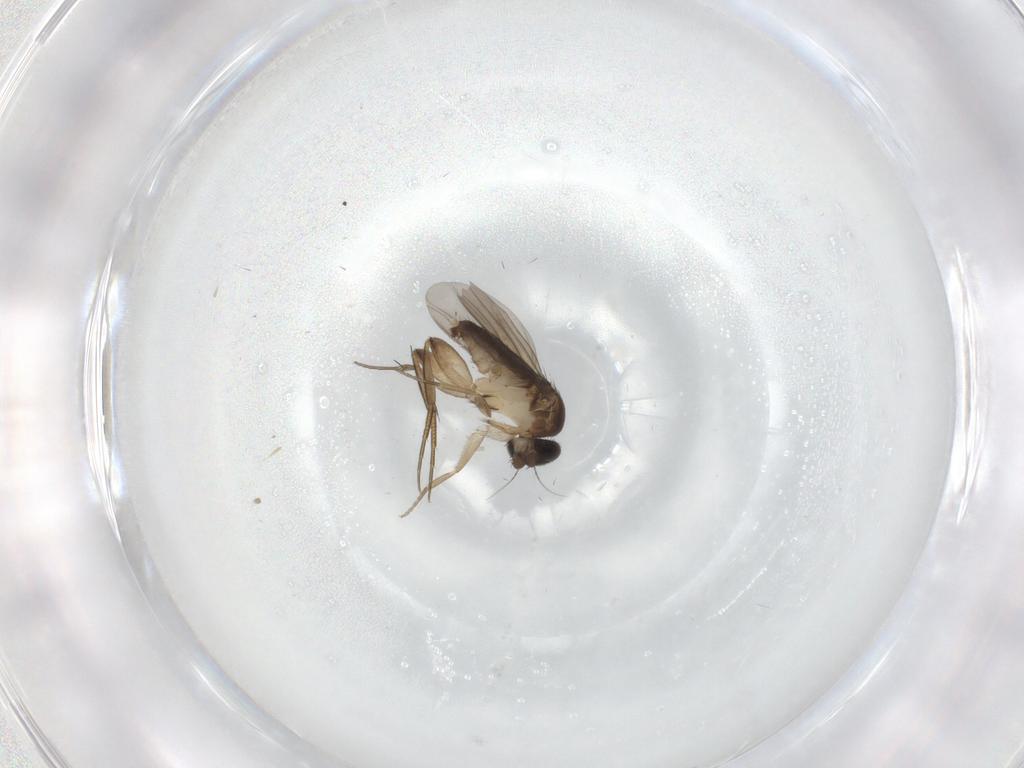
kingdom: Animalia
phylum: Arthropoda
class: Insecta
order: Diptera
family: Phoridae
